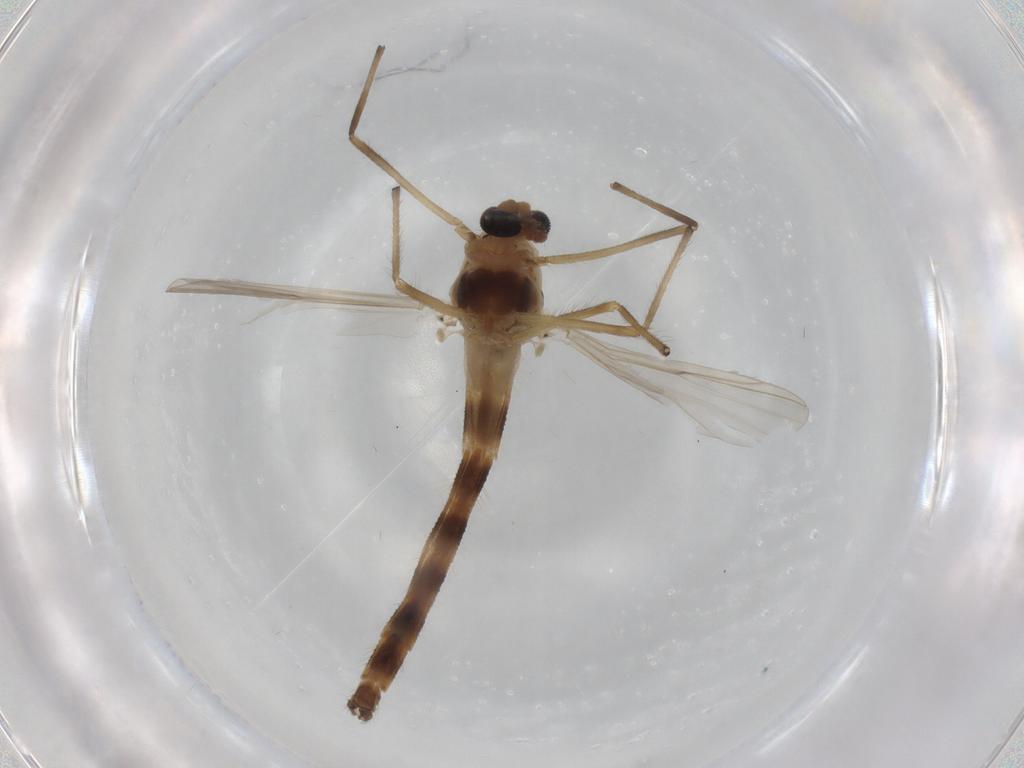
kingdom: Animalia
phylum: Arthropoda
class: Insecta
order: Diptera
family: Chironomidae
